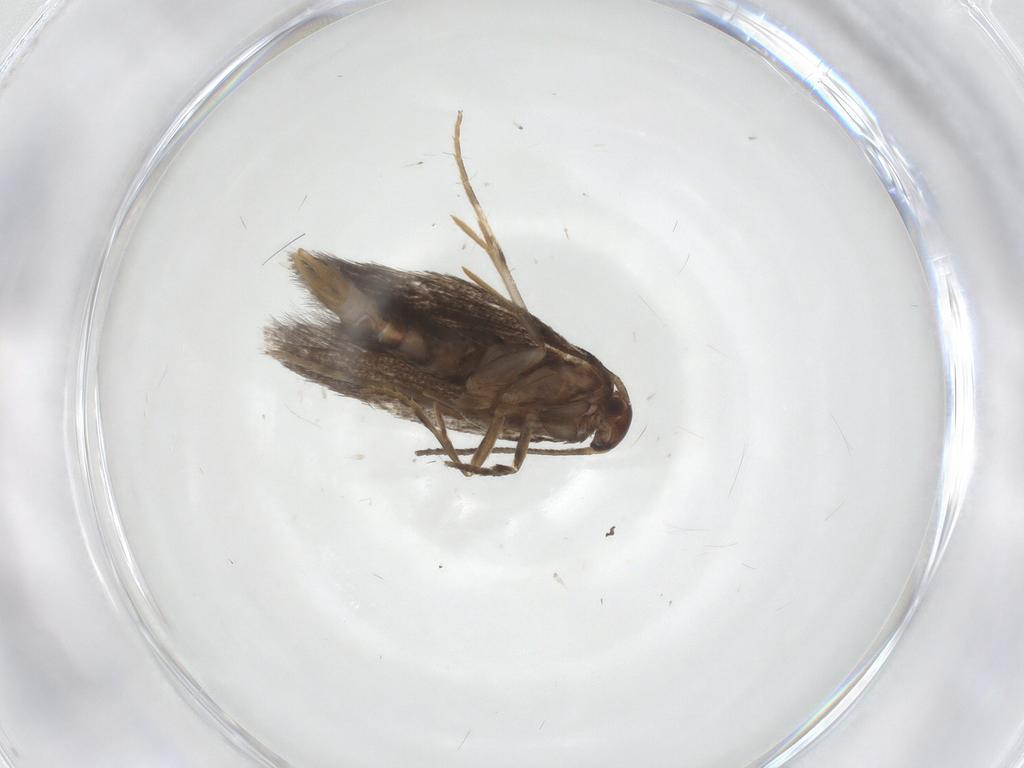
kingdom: Animalia
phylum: Arthropoda
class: Insecta
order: Lepidoptera
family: Elachistidae
